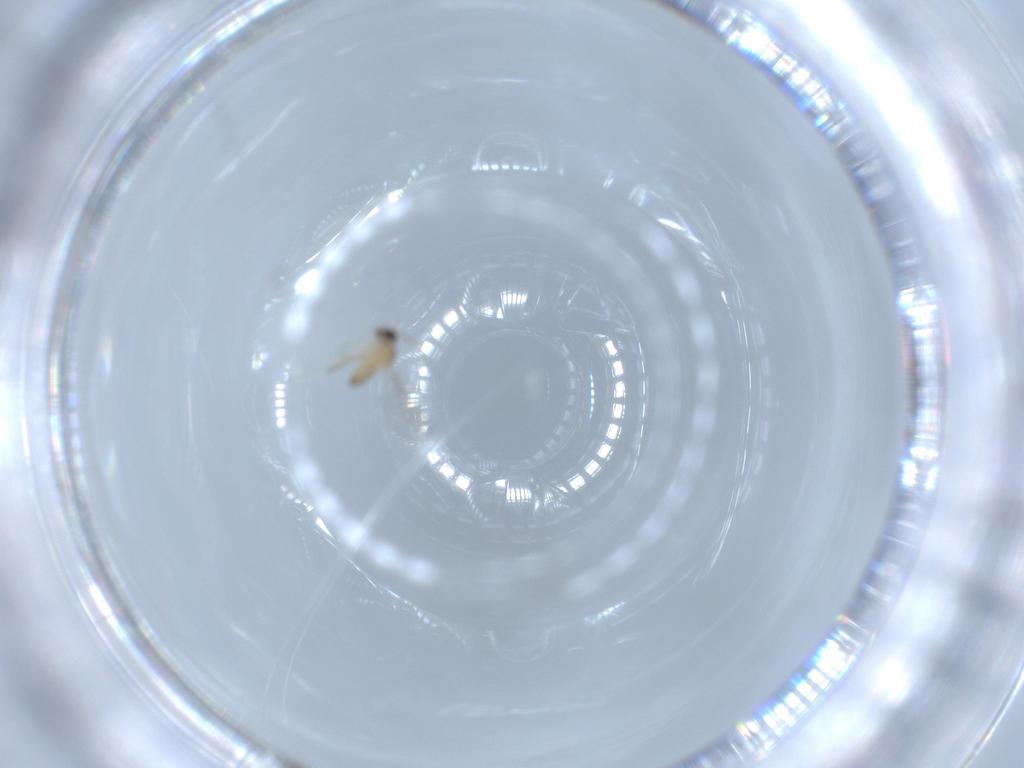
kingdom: Animalia
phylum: Arthropoda
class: Insecta
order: Diptera
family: Cecidomyiidae
